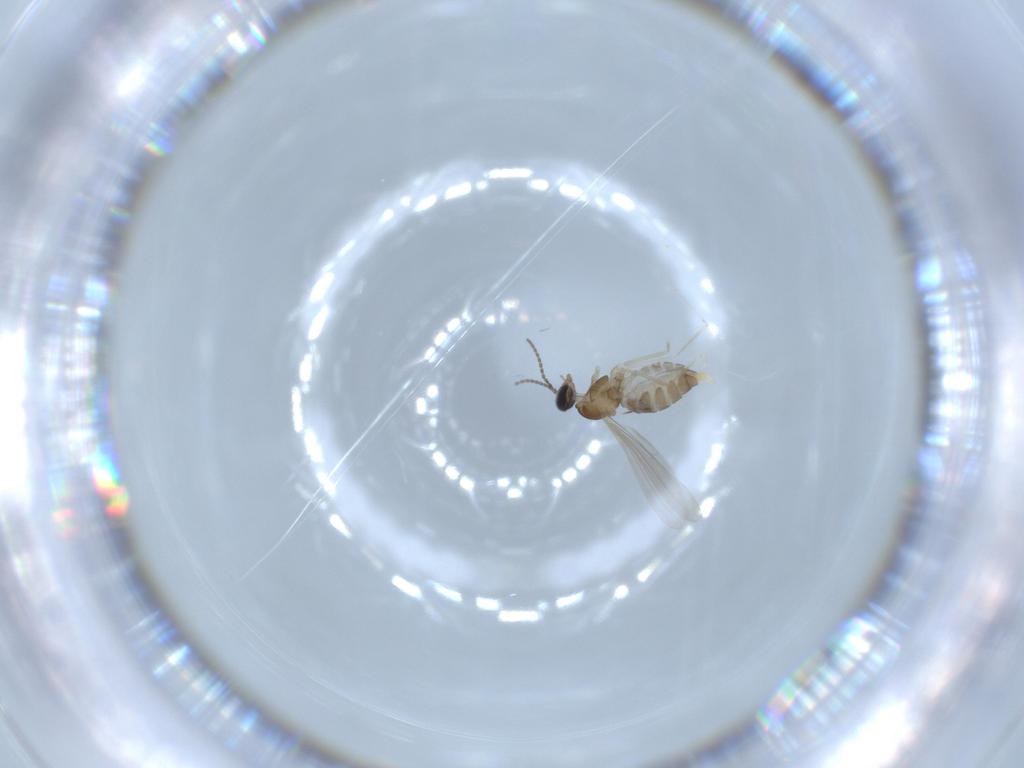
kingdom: Animalia
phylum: Arthropoda
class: Insecta
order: Diptera
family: Cecidomyiidae
